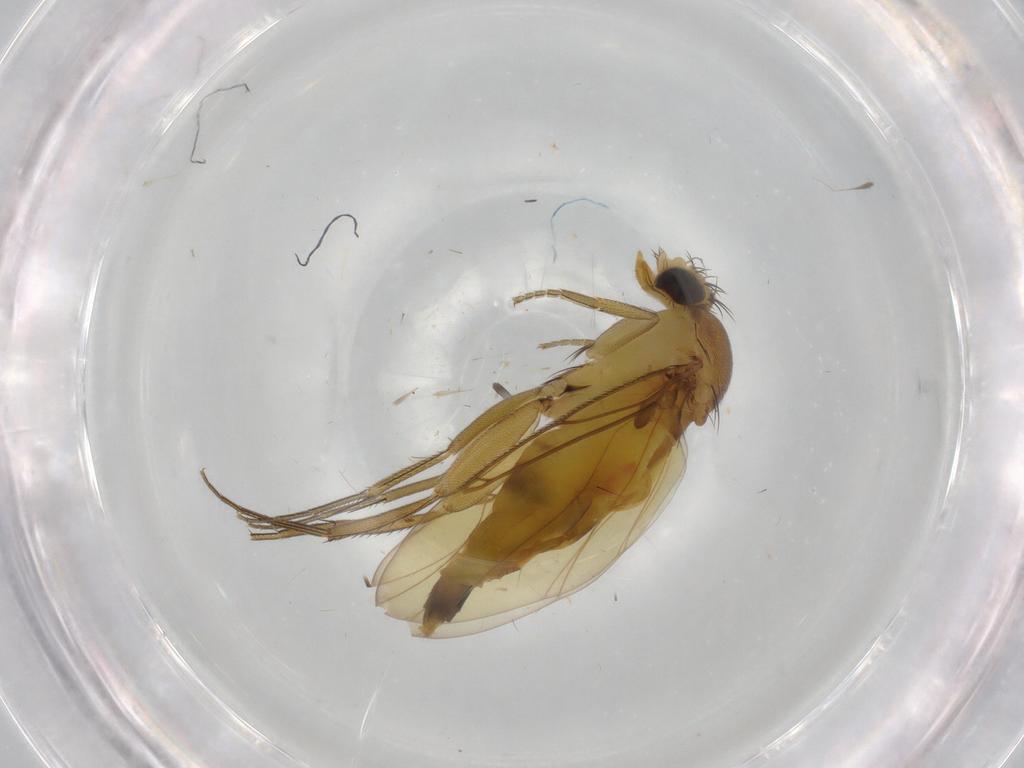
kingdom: Animalia
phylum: Arthropoda
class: Insecta
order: Diptera
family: Phoridae
